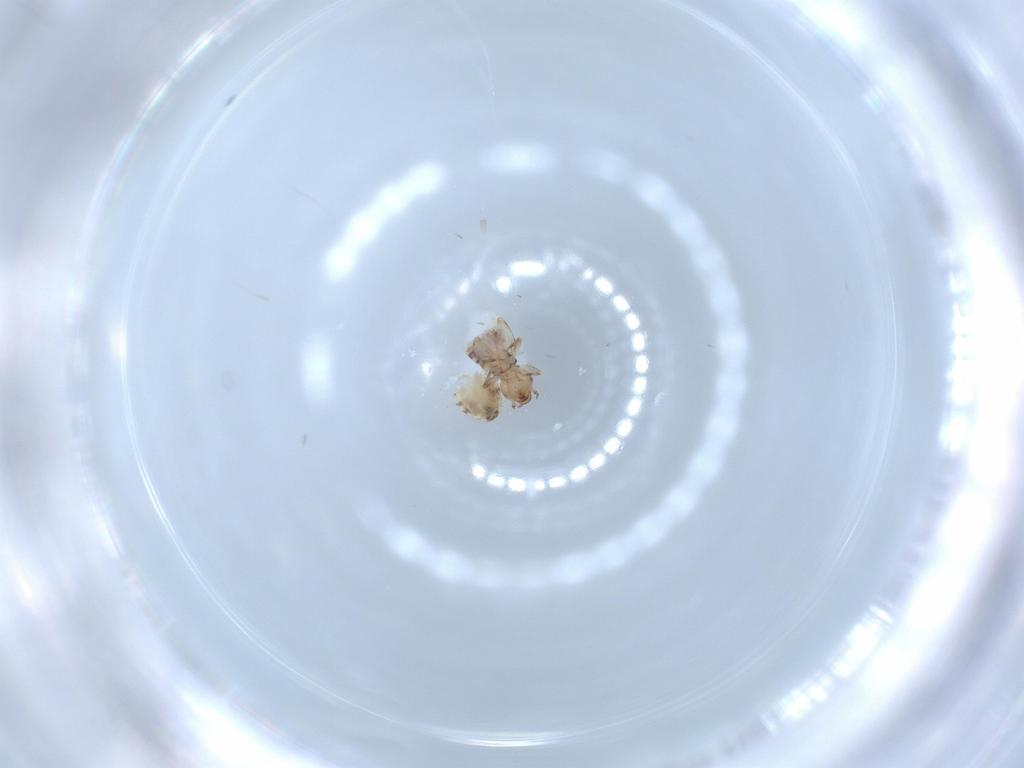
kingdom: Animalia
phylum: Arthropoda
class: Insecta
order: Psocodea
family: Liposcelididae
